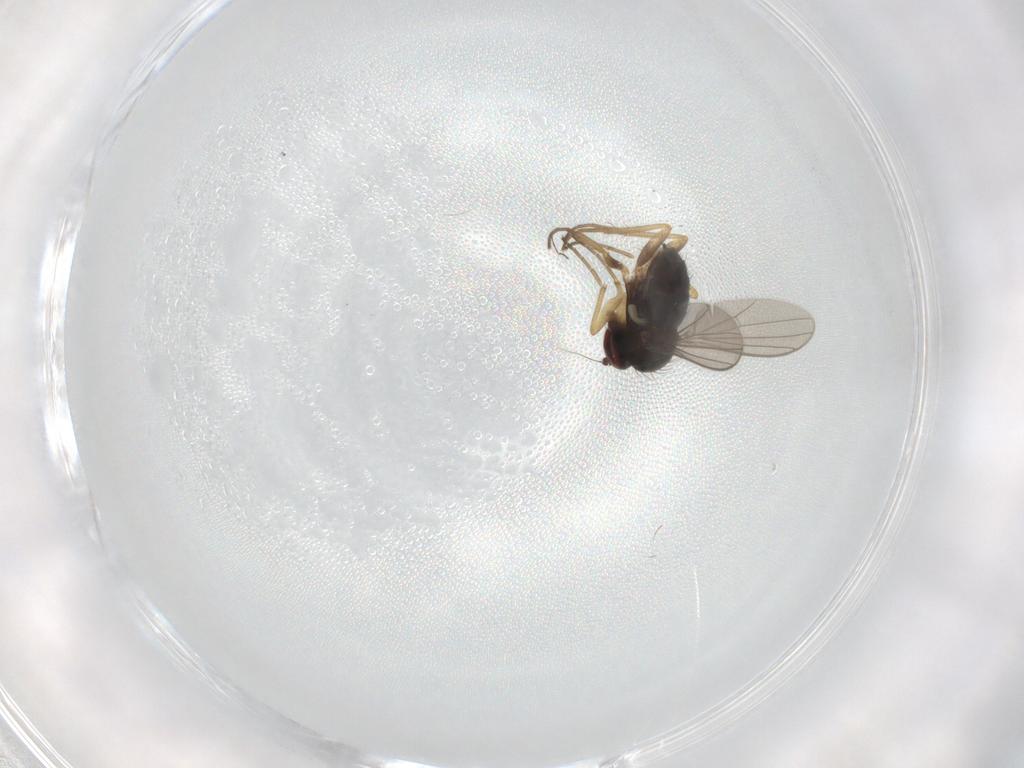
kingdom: Animalia
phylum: Arthropoda
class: Insecta
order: Diptera
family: Dolichopodidae
